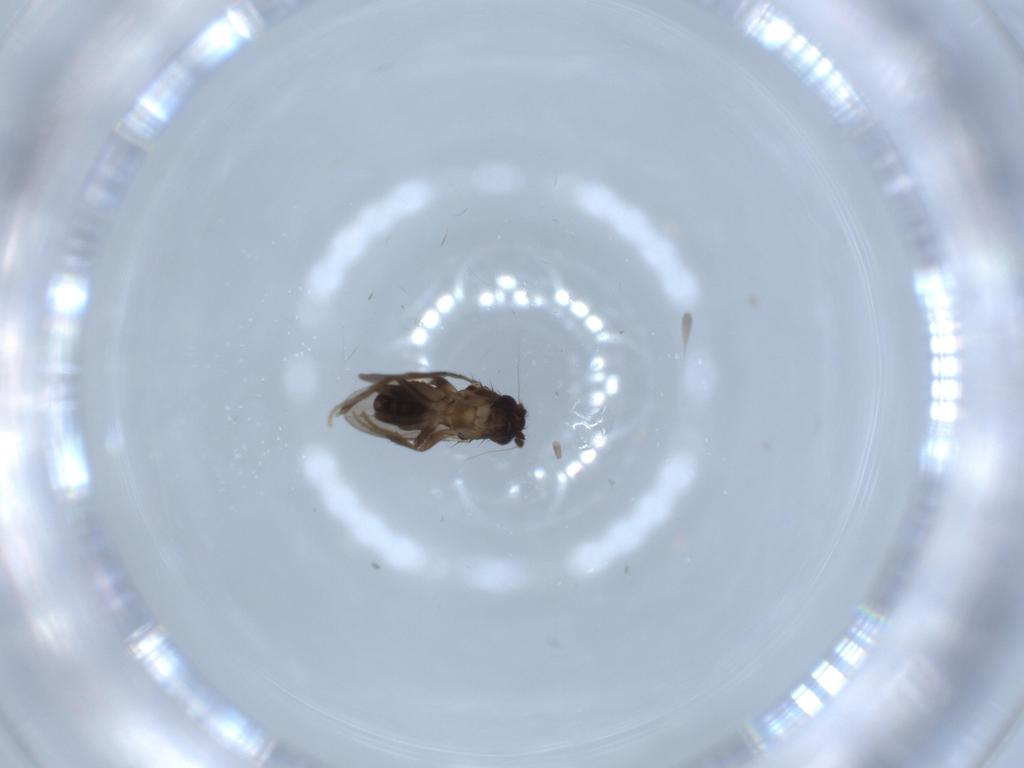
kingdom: Animalia
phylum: Arthropoda
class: Insecta
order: Diptera
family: Sphaeroceridae
